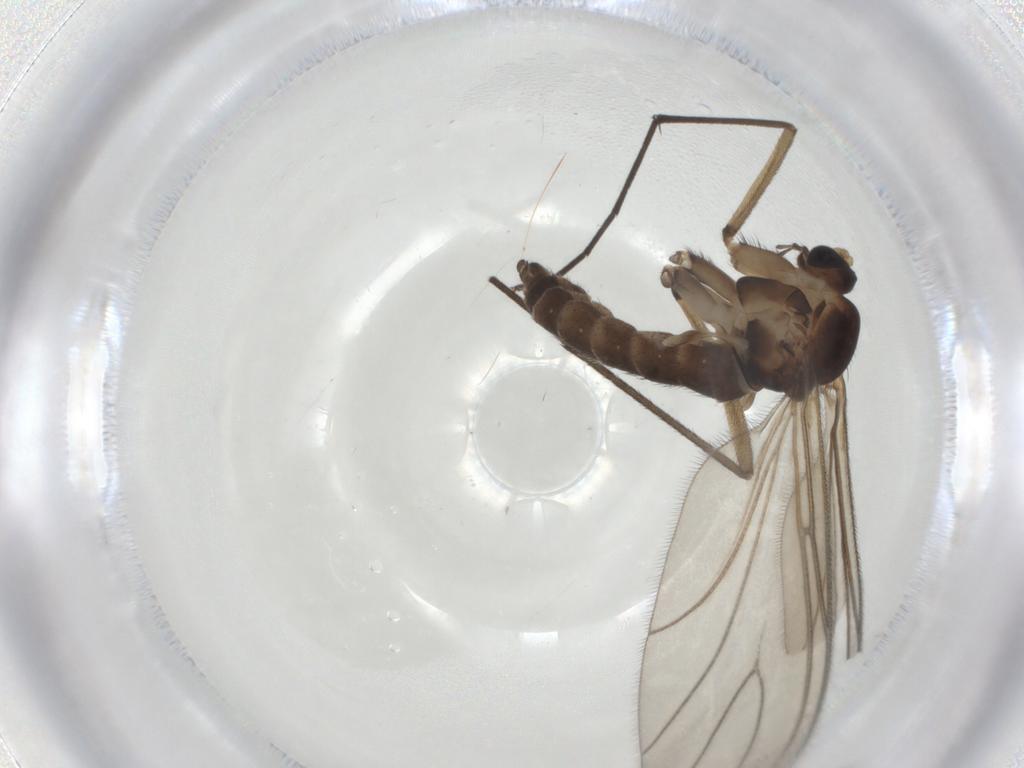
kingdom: Animalia
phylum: Arthropoda
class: Insecta
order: Diptera
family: Sciaridae
